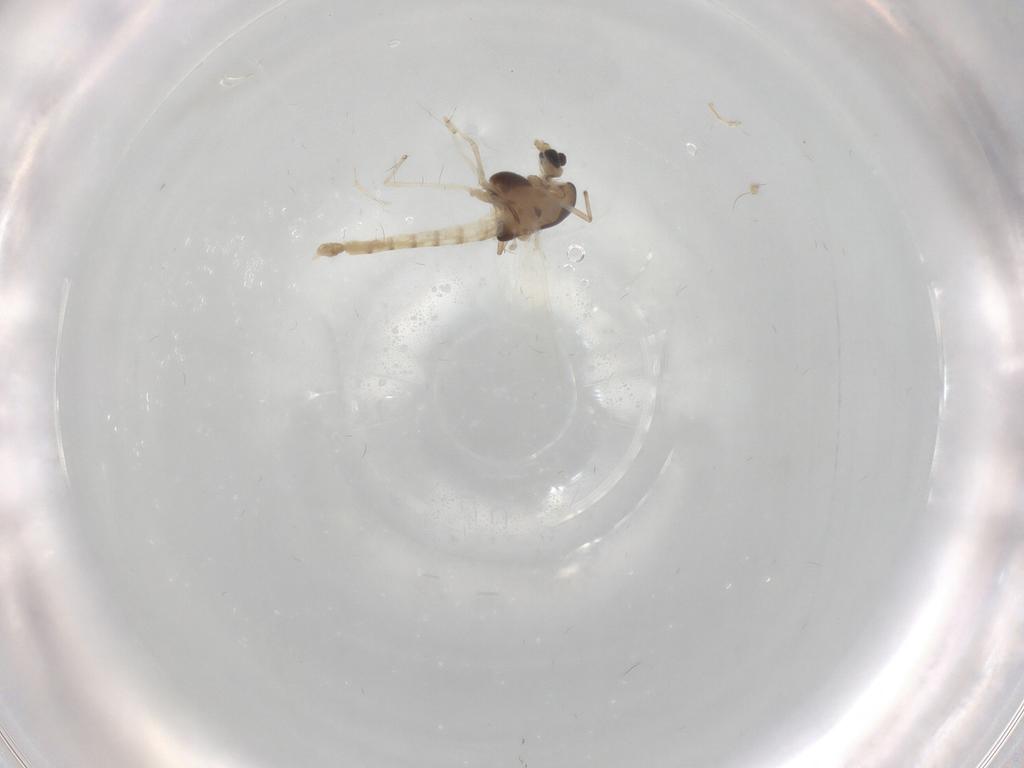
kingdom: Animalia
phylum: Arthropoda
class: Insecta
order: Diptera
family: Chironomidae
